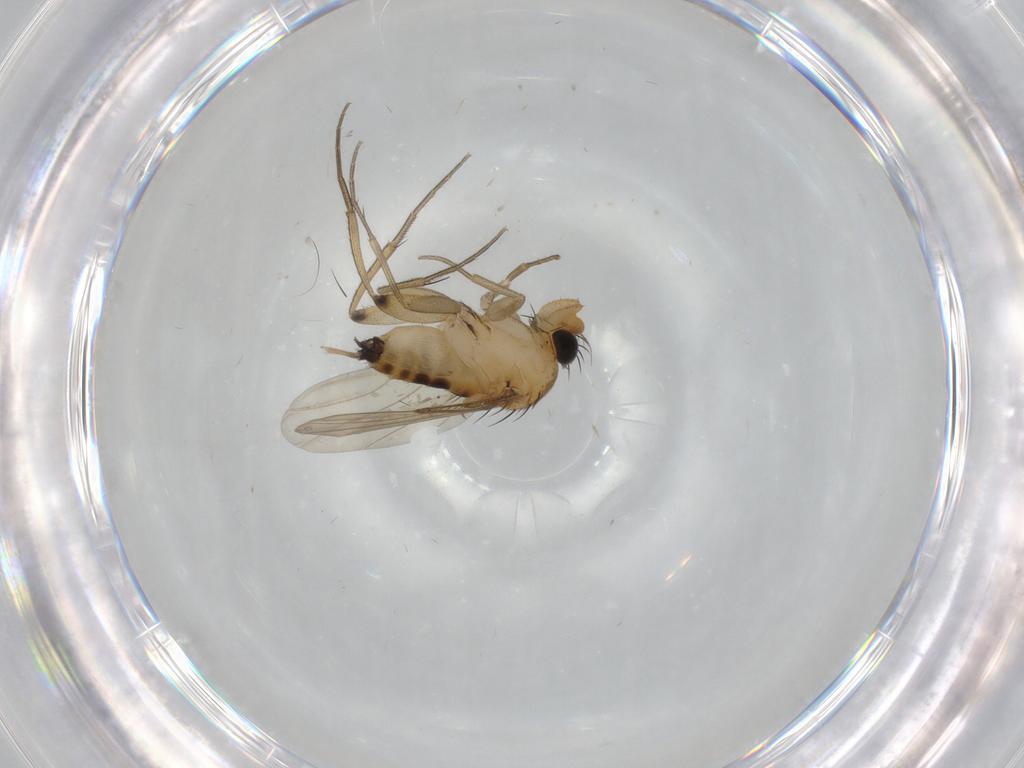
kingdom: Animalia
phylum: Arthropoda
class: Insecta
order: Diptera
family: Phoridae
